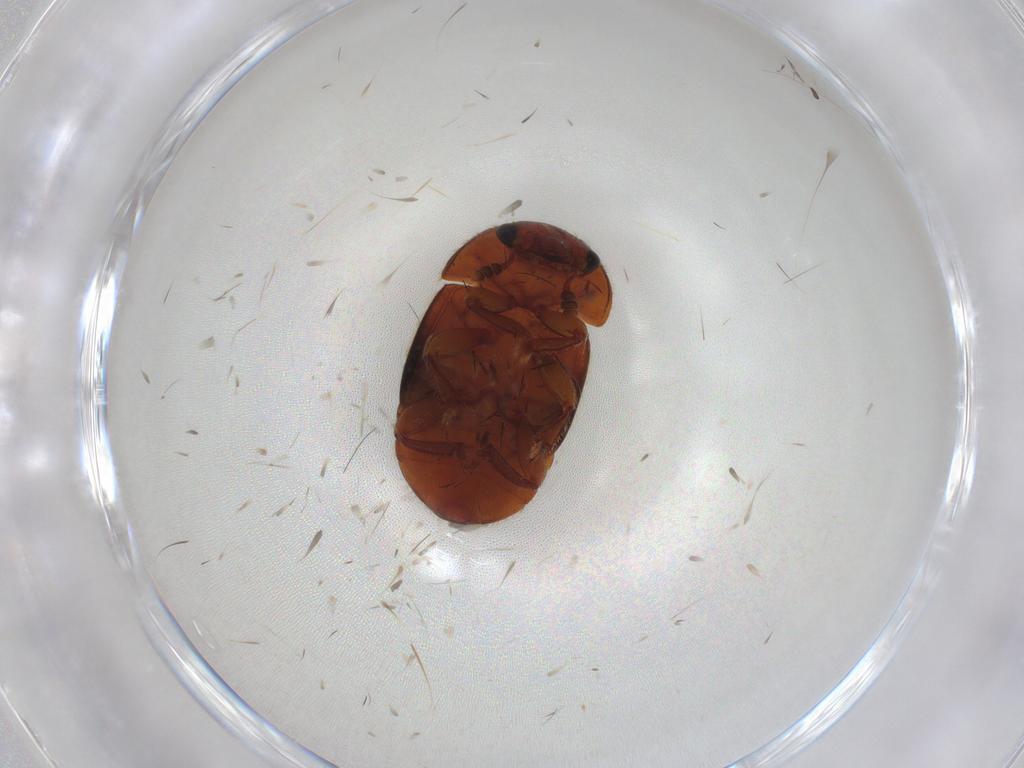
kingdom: Animalia
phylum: Arthropoda
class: Insecta
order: Coleoptera
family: Nitidulidae
